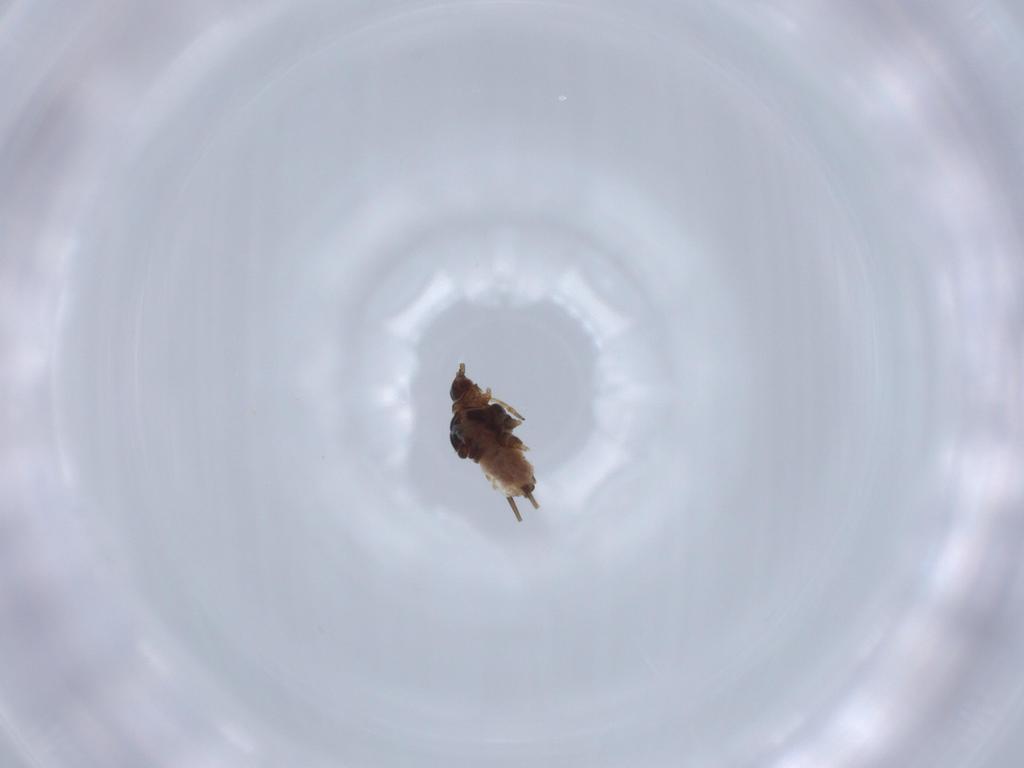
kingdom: Animalia
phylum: Arthropoda
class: Insecta
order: Hemiptera
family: Aphididae
